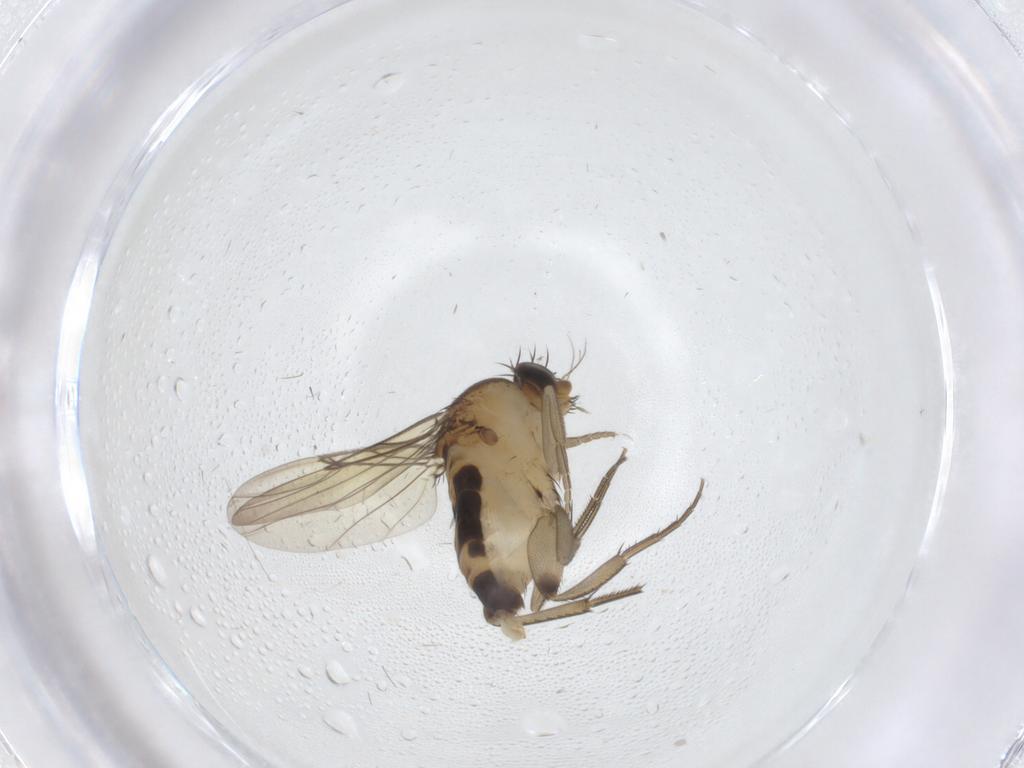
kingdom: Animalia
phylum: Arthropoda
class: Insecta
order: Diptera
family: Phoridae
